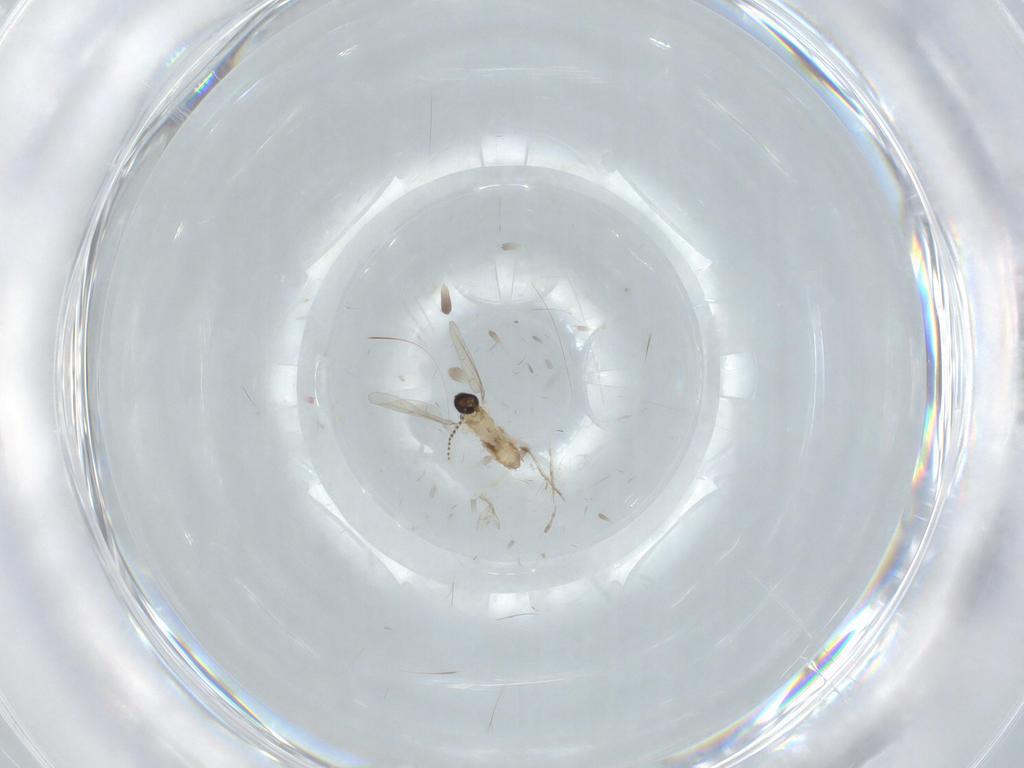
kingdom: Animalia
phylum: Arthropoda
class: Insecta
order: Diptera
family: Cecidomyiidae
